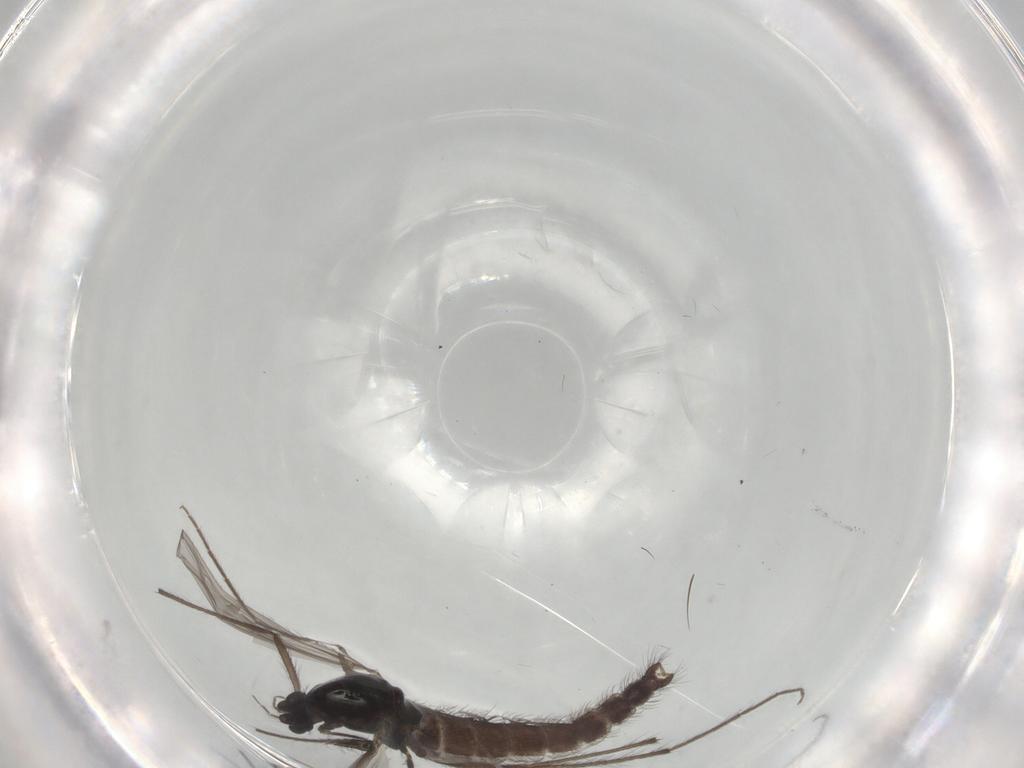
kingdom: Animalia
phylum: Arthropoda
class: Insecta
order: Diptera
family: Chironomidae
